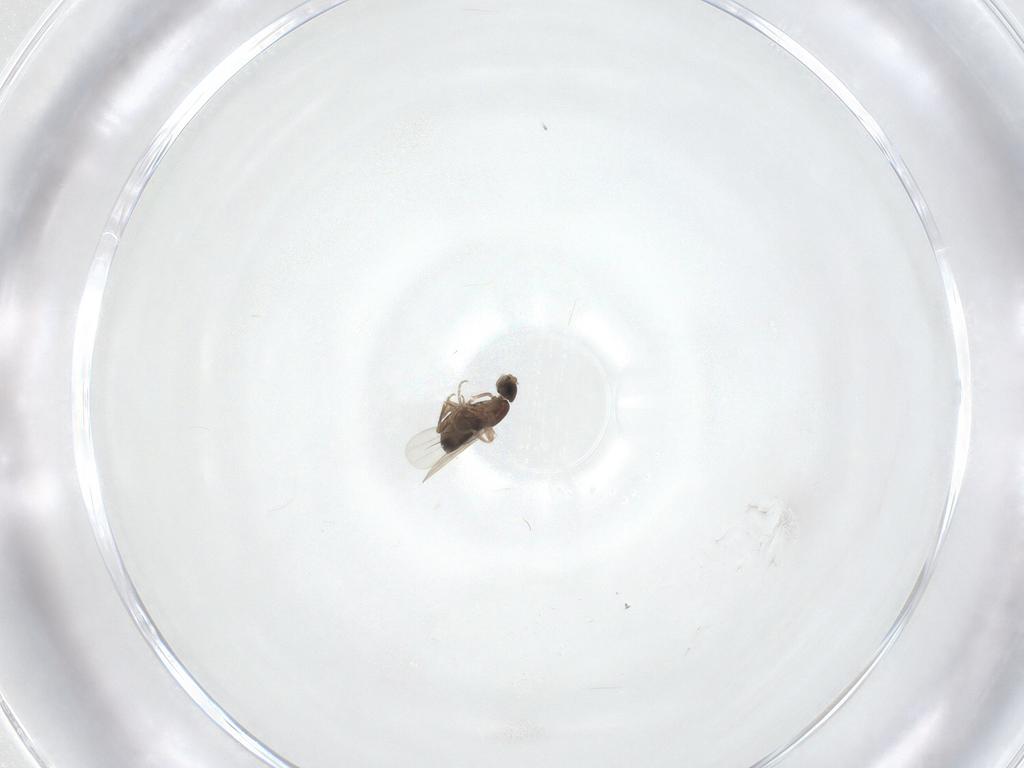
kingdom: Animalia
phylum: Arthropoda
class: Insecta
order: Diptera
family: Phoridae
